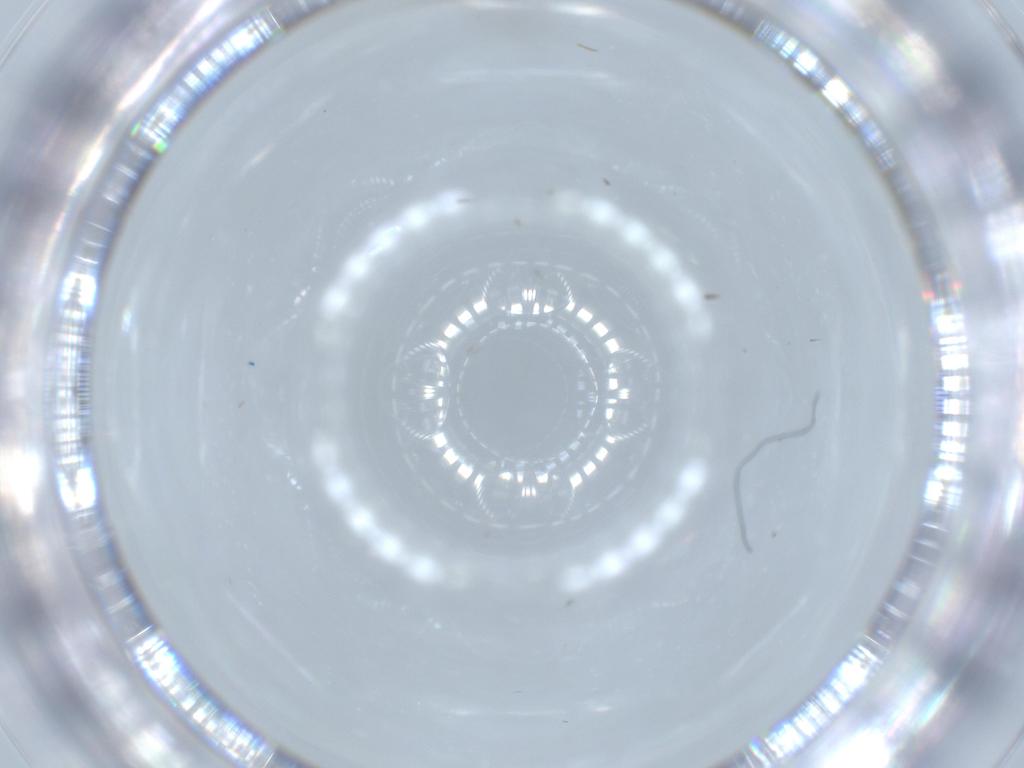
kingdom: Animalia
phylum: Arthropoda
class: Insecta
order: Diptera
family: Cecidomyiidae
